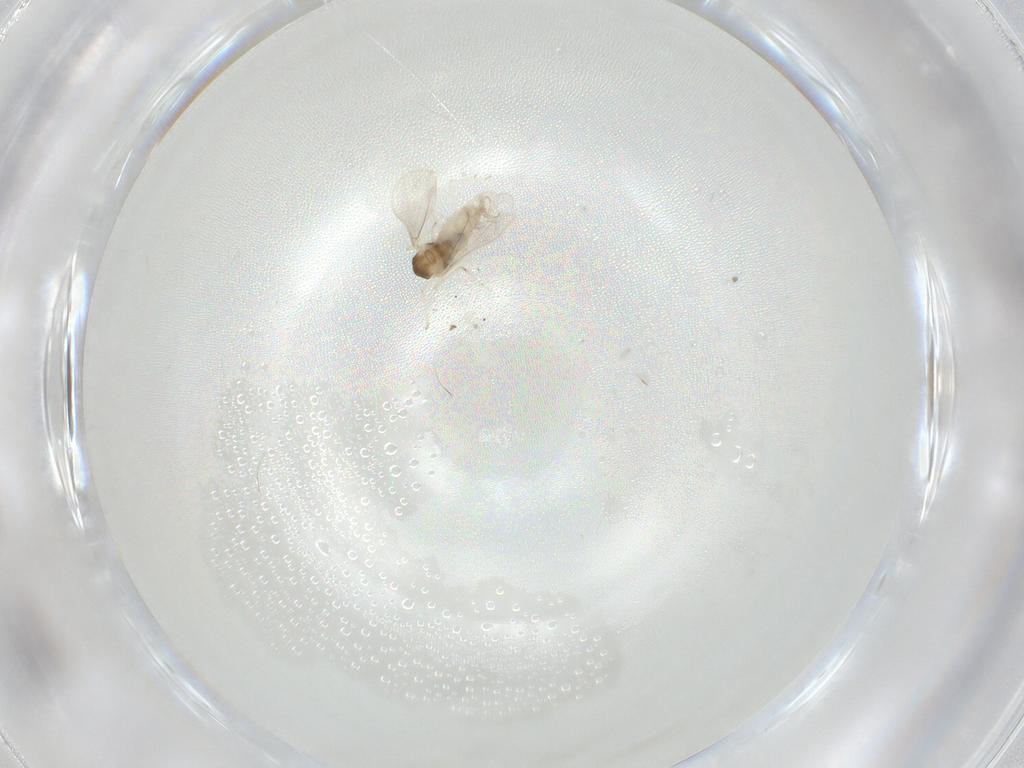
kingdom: Animalia
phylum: Arthropoda
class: Insecta
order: Diptera
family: Cecidomyiidae
